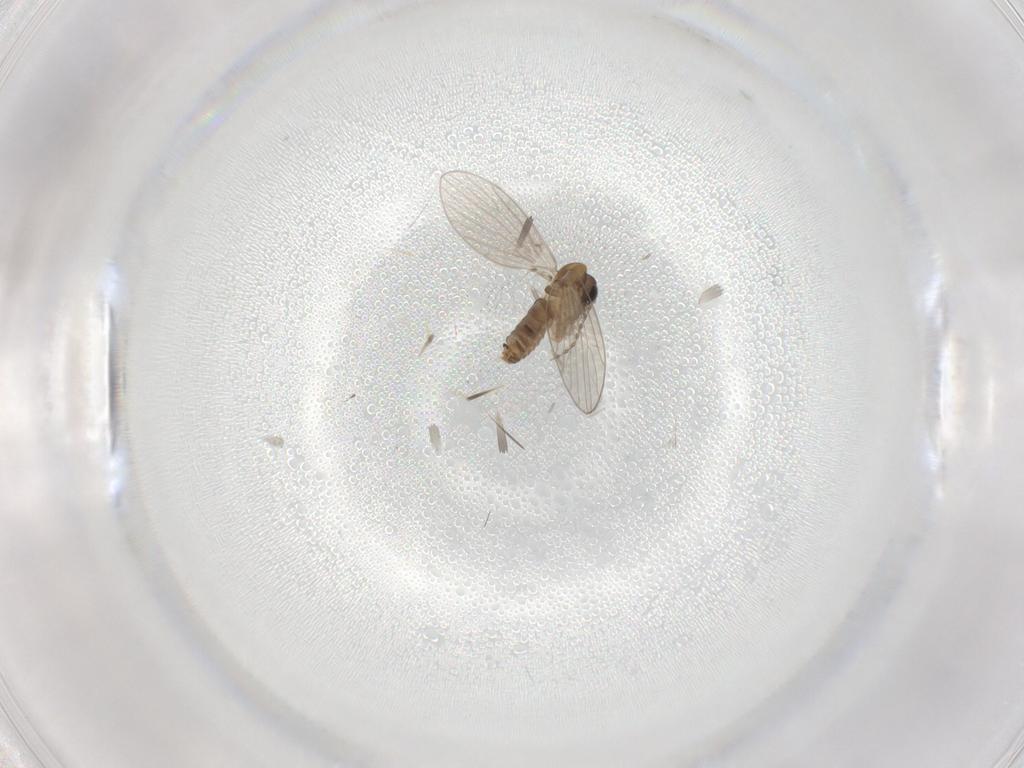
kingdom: Animalia
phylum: Arthropoda
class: Insecta
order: Diptera
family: Psychodidae
